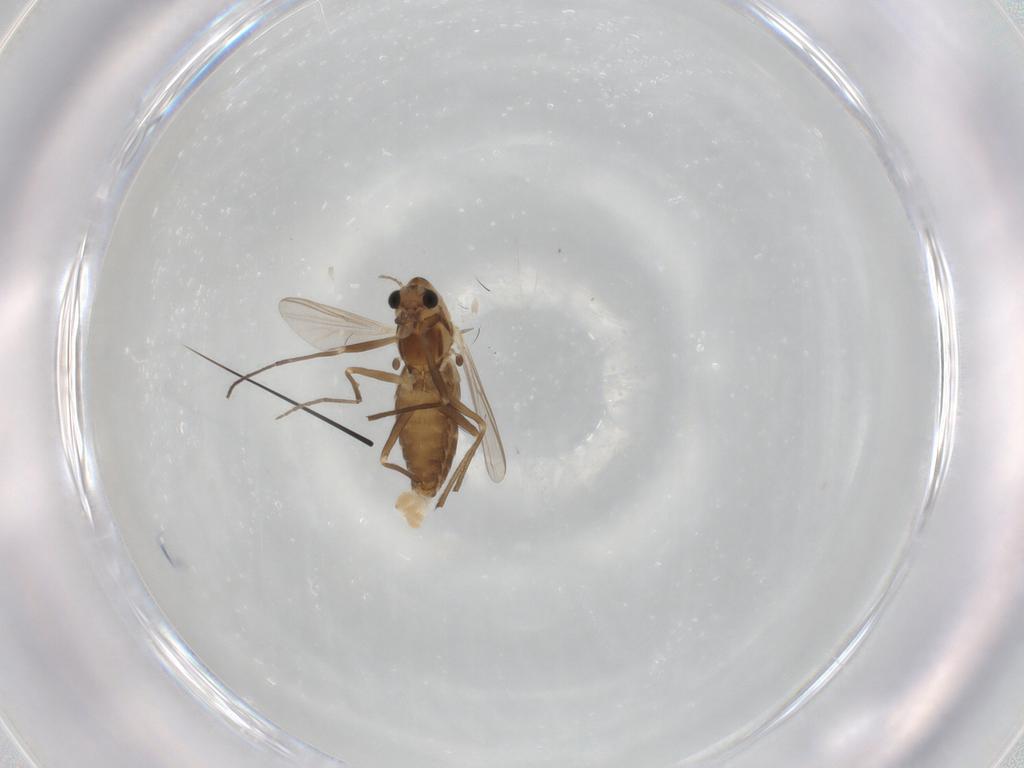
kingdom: Animalia
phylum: Arthropoda
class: Insecta
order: Diptera
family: Chironomidae
